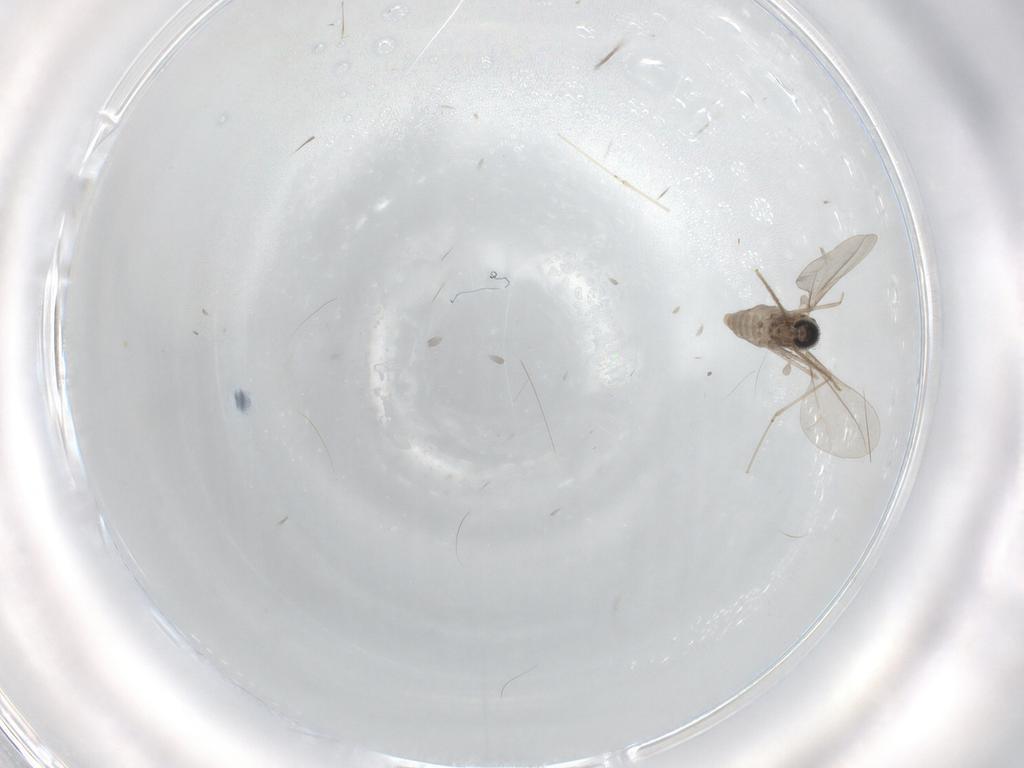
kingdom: Animalia
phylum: Arthropoda
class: Insecta
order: Diptera
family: Cecidomyiidae
